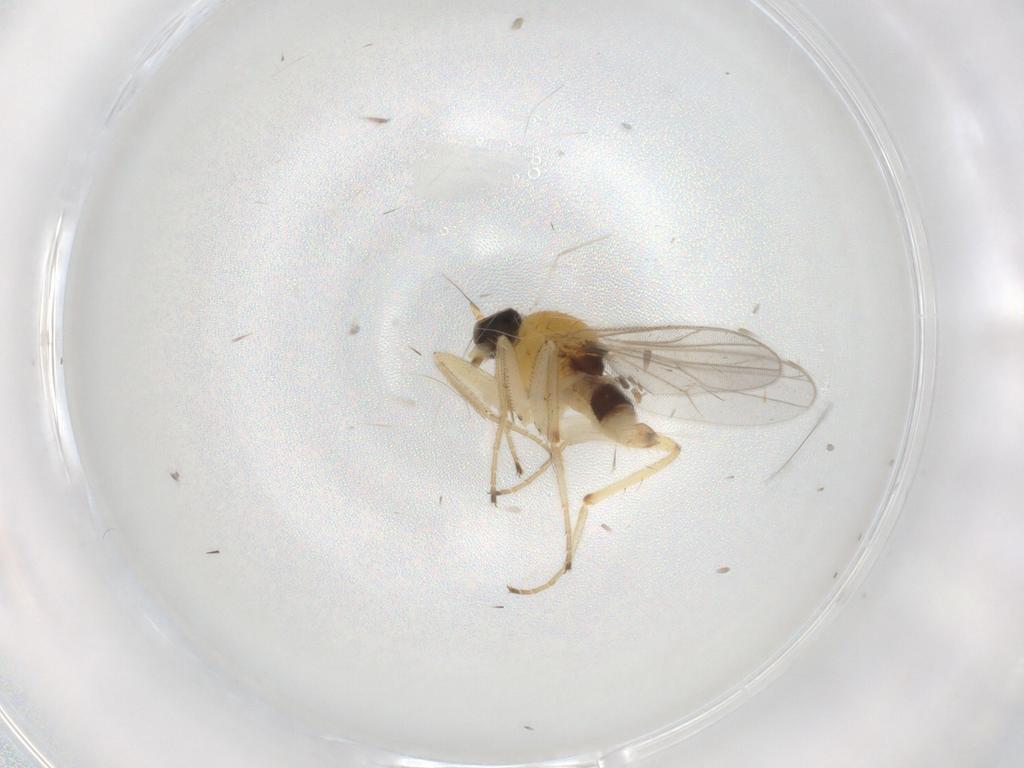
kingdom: Animalia
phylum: Arthropoda
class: Insecta
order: Diptera
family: Hybotidae
